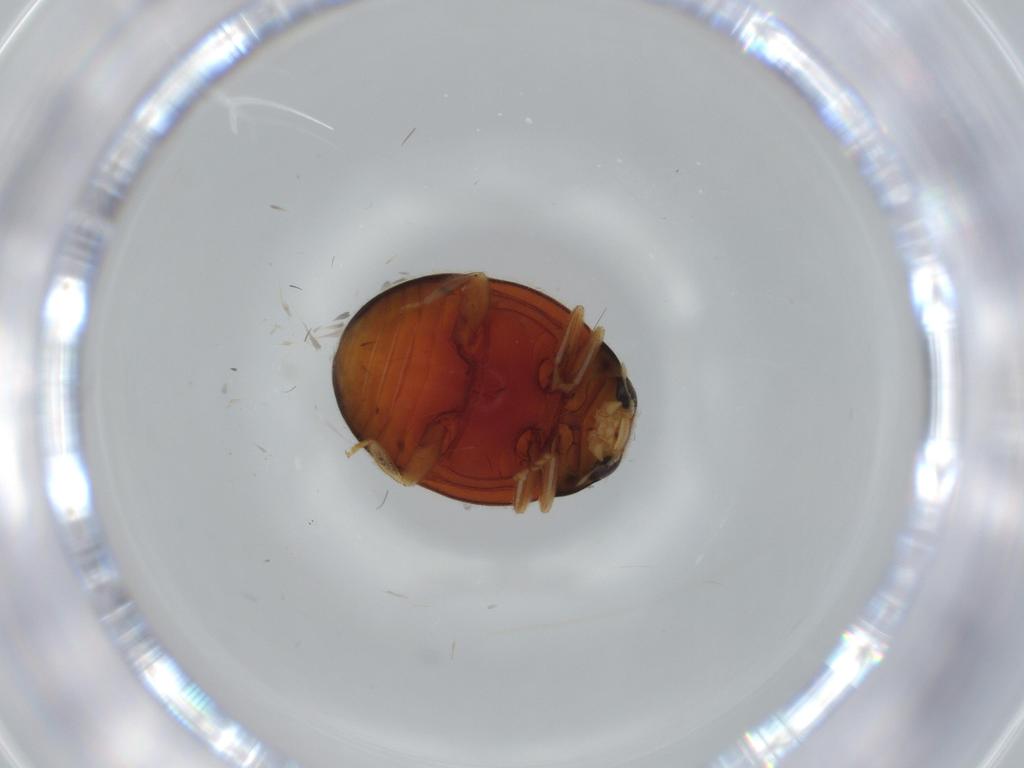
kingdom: Animalia
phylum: Arthropoda
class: Insecta
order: Coleoptera
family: Coccinellidae
